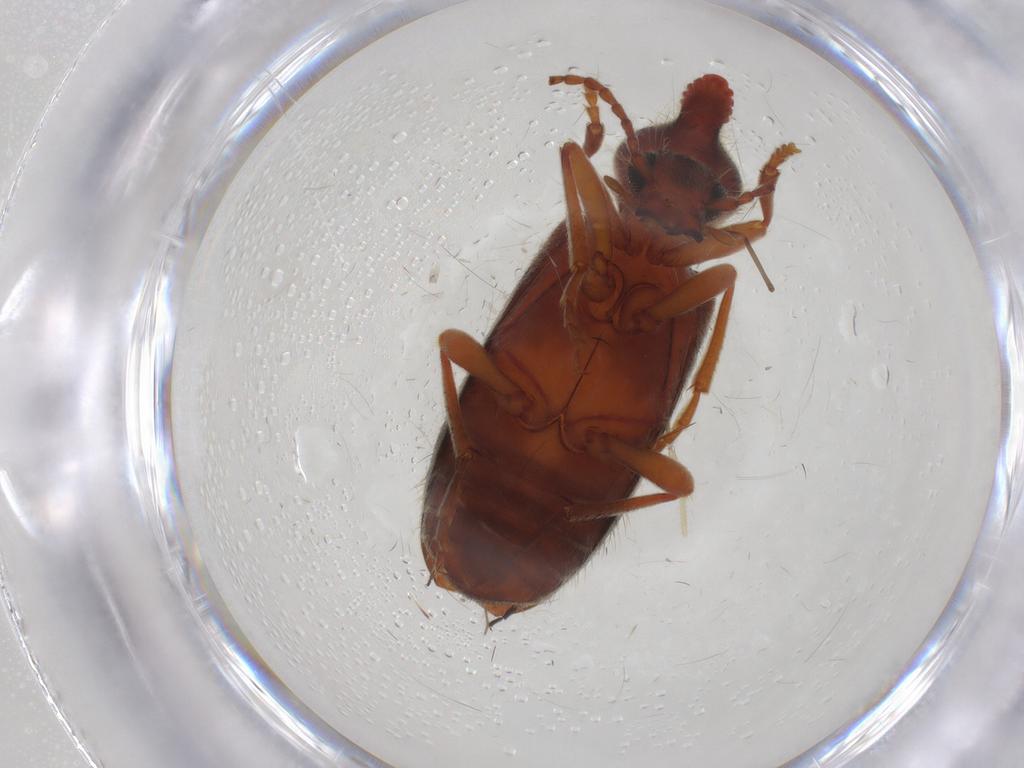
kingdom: Animalia
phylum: Arthropoda
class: Insecta
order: Coleoptera
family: Anthicidae
